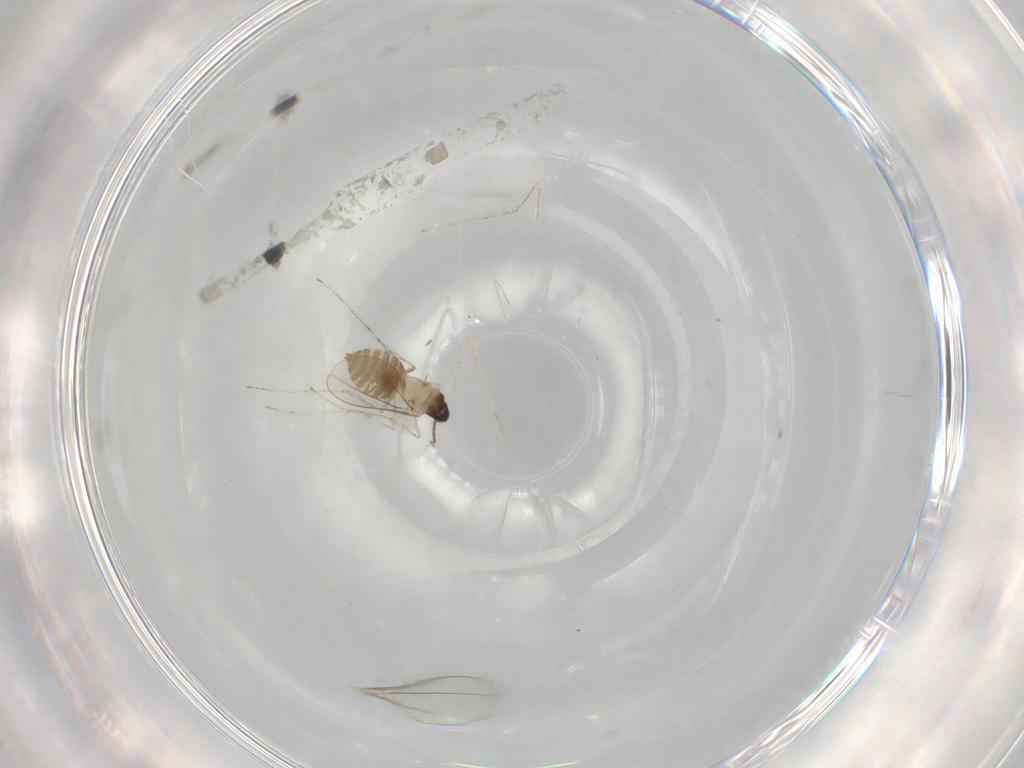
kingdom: Animalia
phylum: Arthropoda
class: Insecta
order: Diptera
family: Cecidomyiidae
